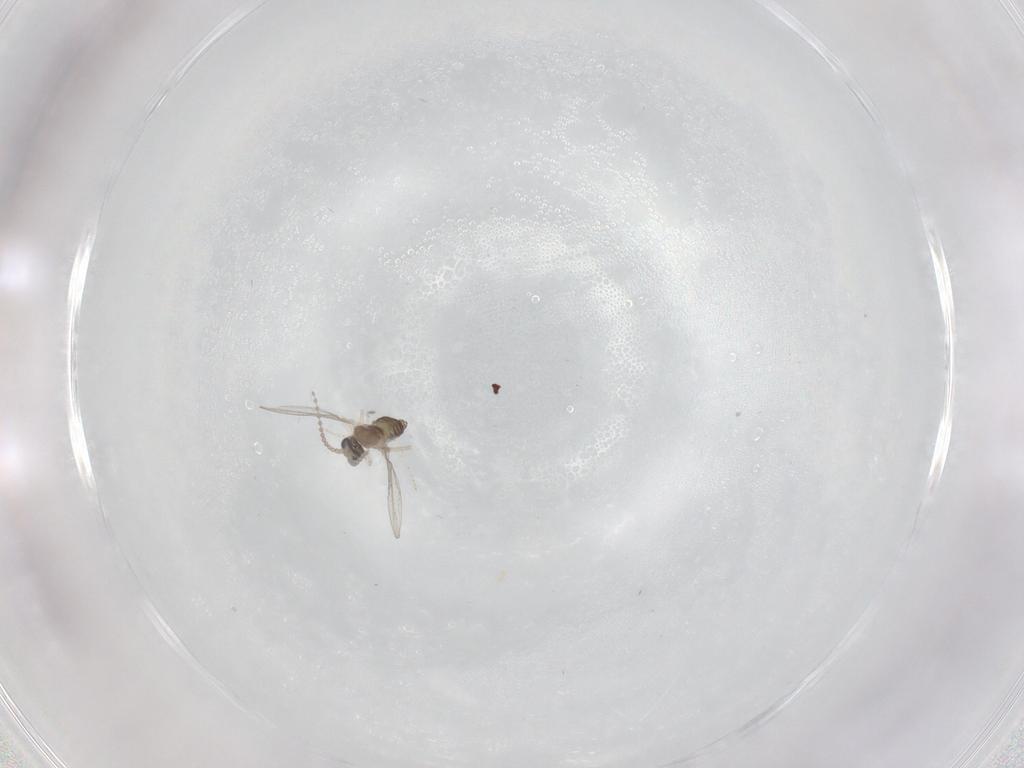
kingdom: Animalia
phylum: Arthropoda
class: Insecta
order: Diptera
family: Cecidomyiidae
